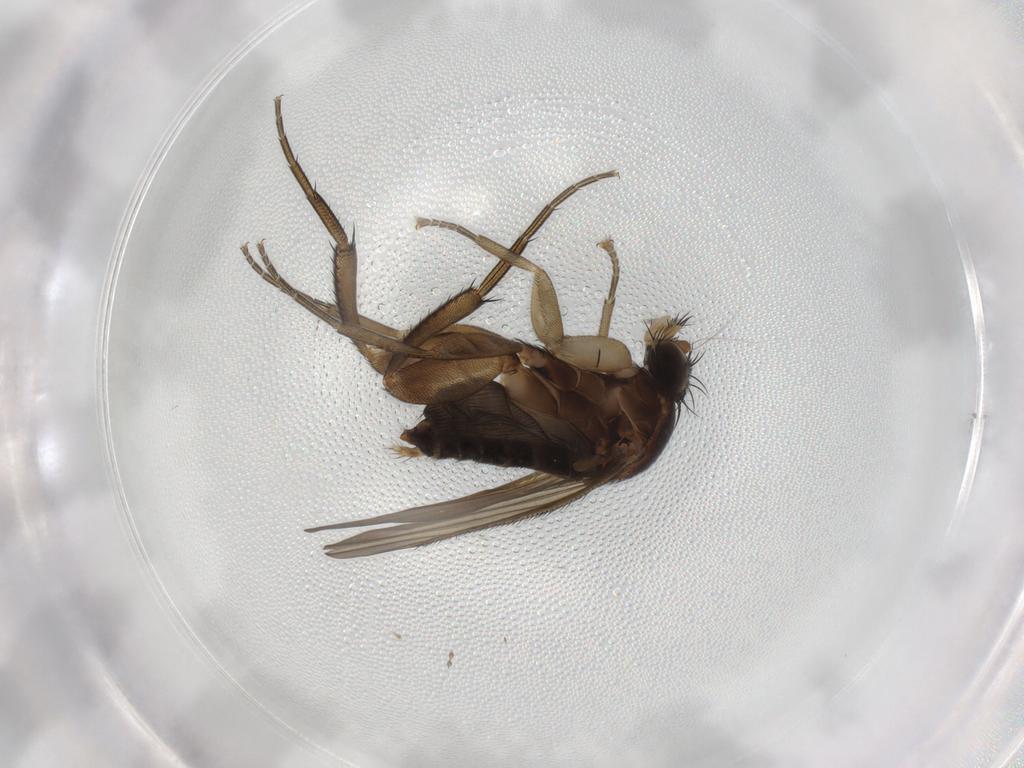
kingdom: Animalia
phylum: Arthropoda
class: Insecta
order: Diptera
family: Phoridae
